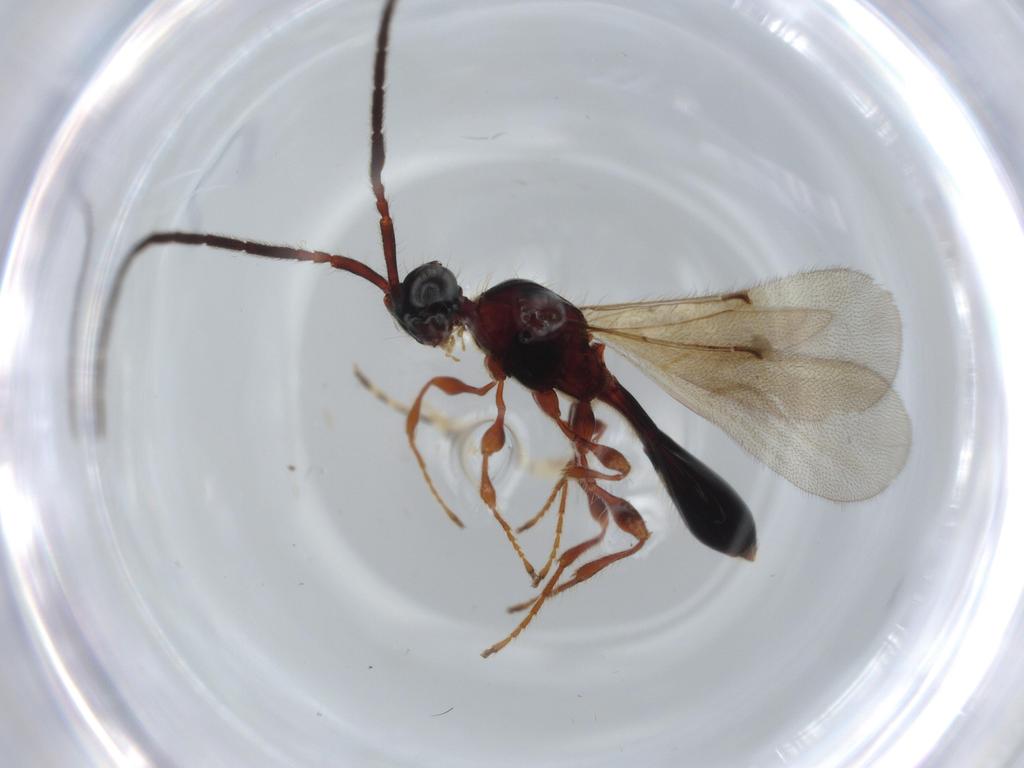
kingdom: Animalia
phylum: Arthropoda
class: Insecta
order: Hymenoptera
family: Diapriidae
